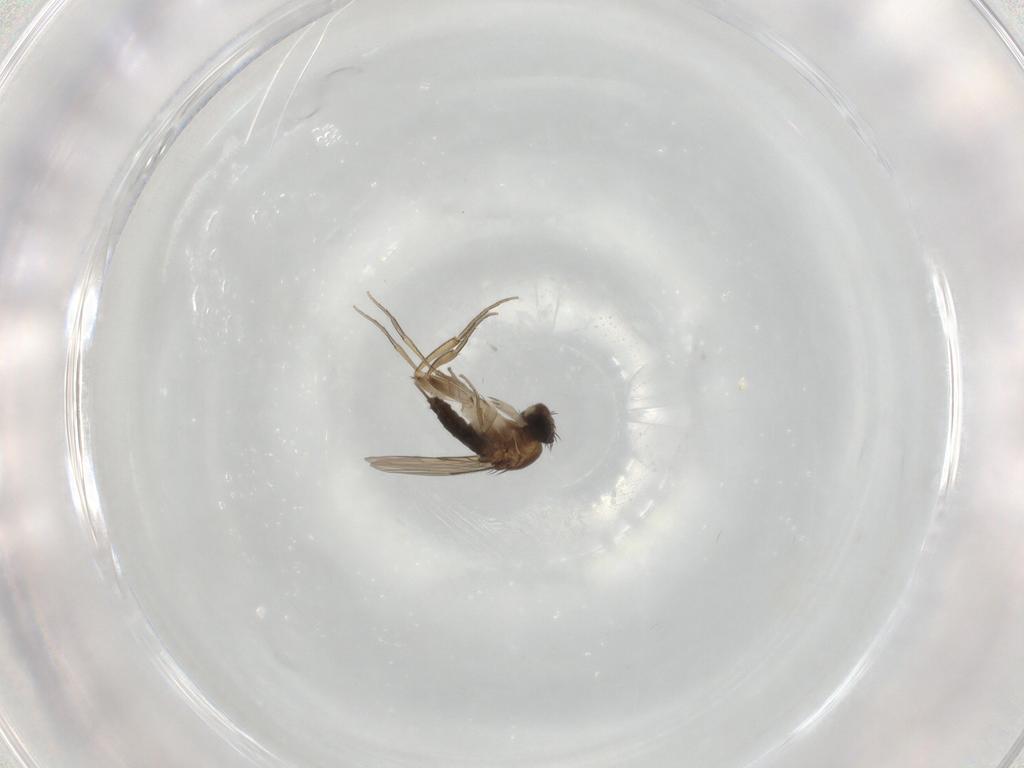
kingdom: Animalia
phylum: Arthropoda
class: Insecta
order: Diptera
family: Phoridae
